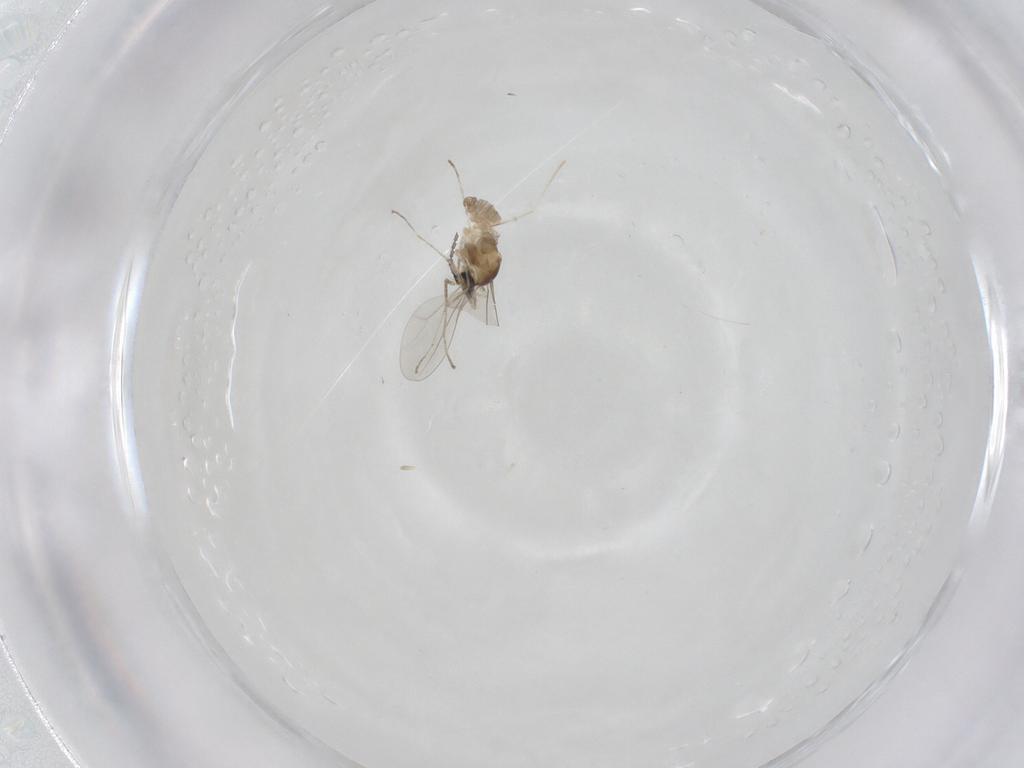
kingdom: Animalia
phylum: Arthropoda
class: Insecta
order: Diptera
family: Cecidomyiidae
